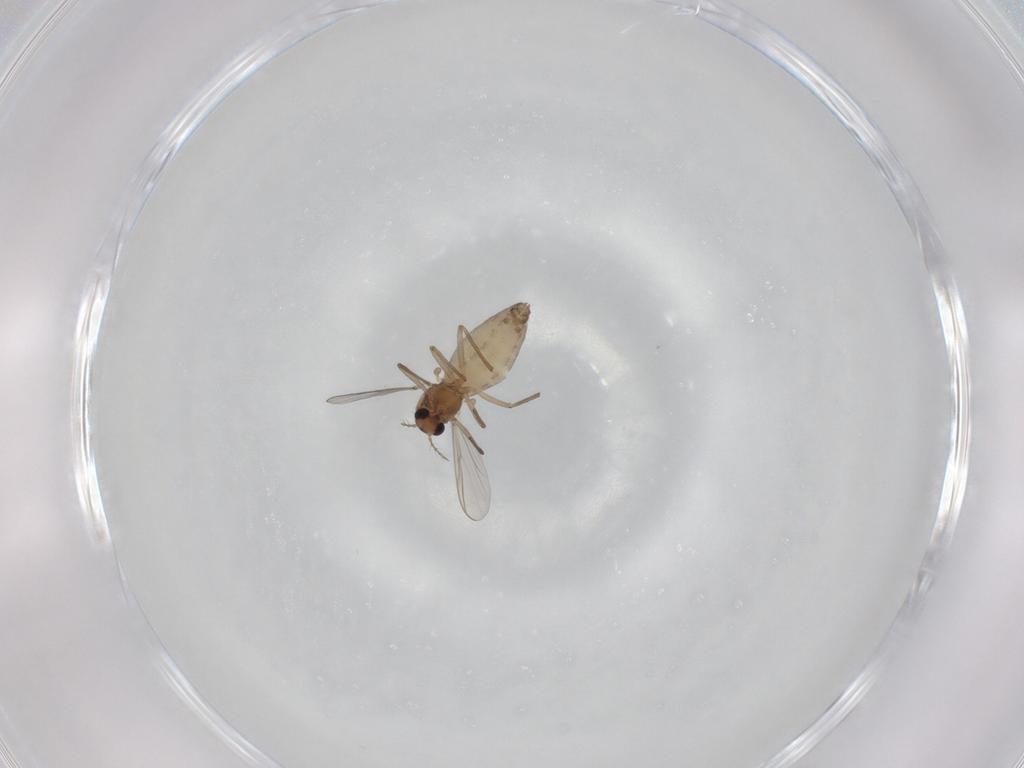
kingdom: Animalia
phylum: Arthropoda
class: Insecta
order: Diptera
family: Chironomidae
